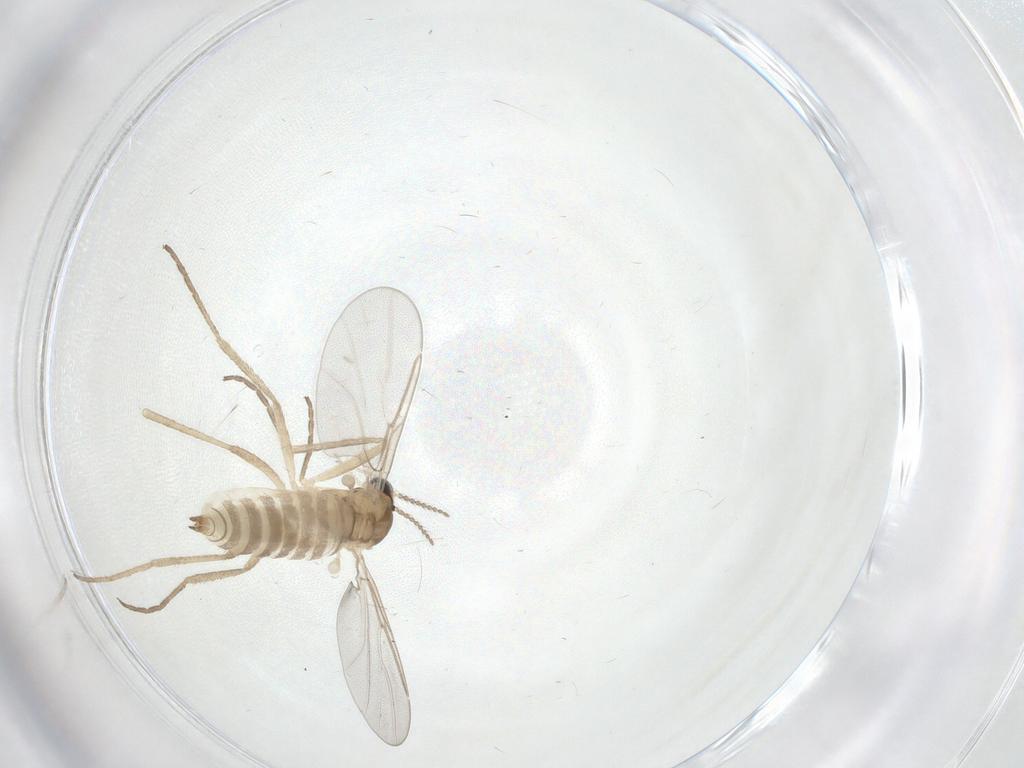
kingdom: Animalia
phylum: Arthropoda
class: Insecta
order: Diptera
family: Cecidomyiidae
